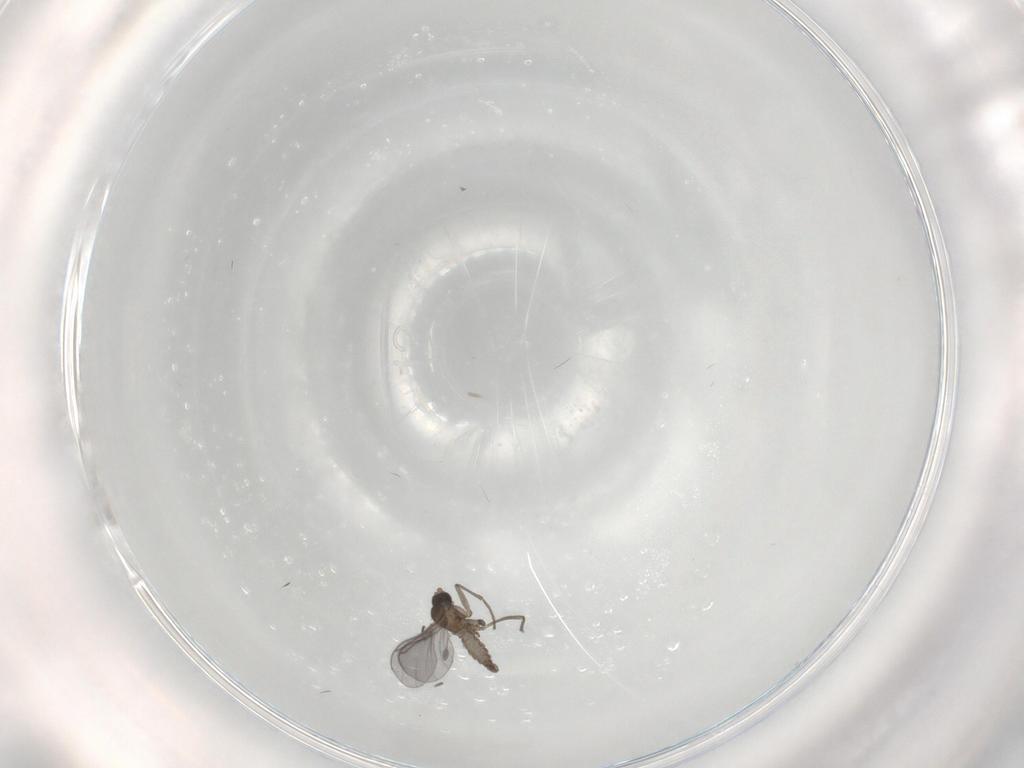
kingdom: Animalia
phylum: Arthropoda
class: Insecta
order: Diptera
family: Sciaridae
